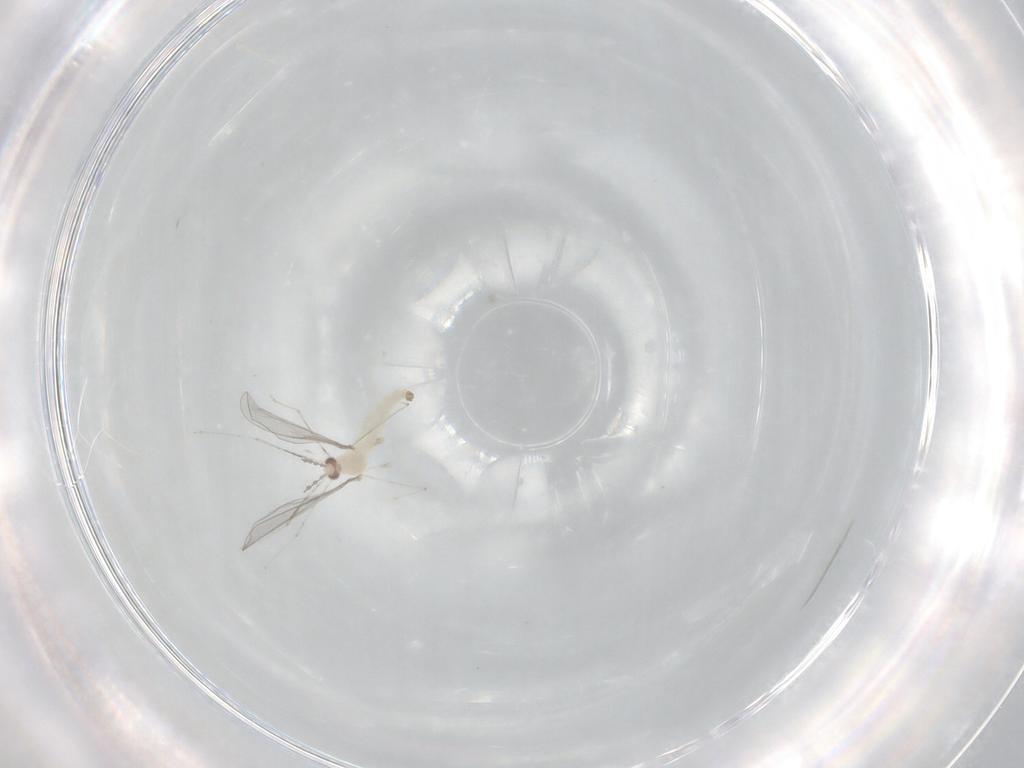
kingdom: Animalia
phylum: Arthropoda
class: Insecta
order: Diptera
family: Cecidomyiidae
